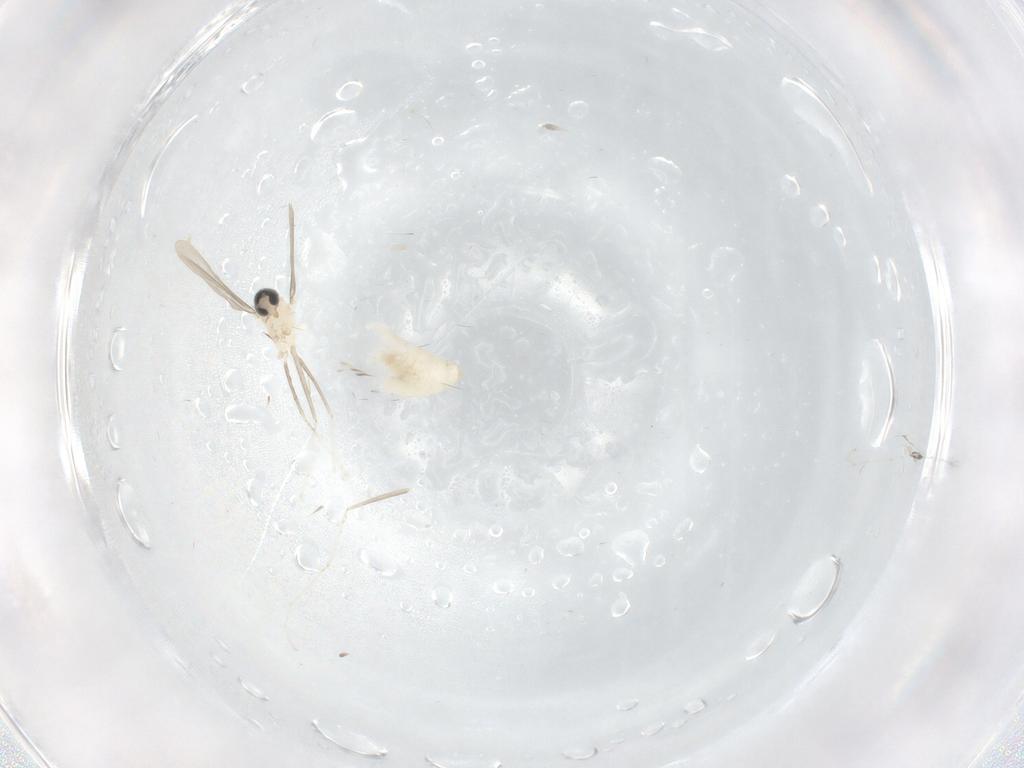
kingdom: Animalia
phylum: Arthropoda
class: Insecta
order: Diptera
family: Cecidomyiidae
